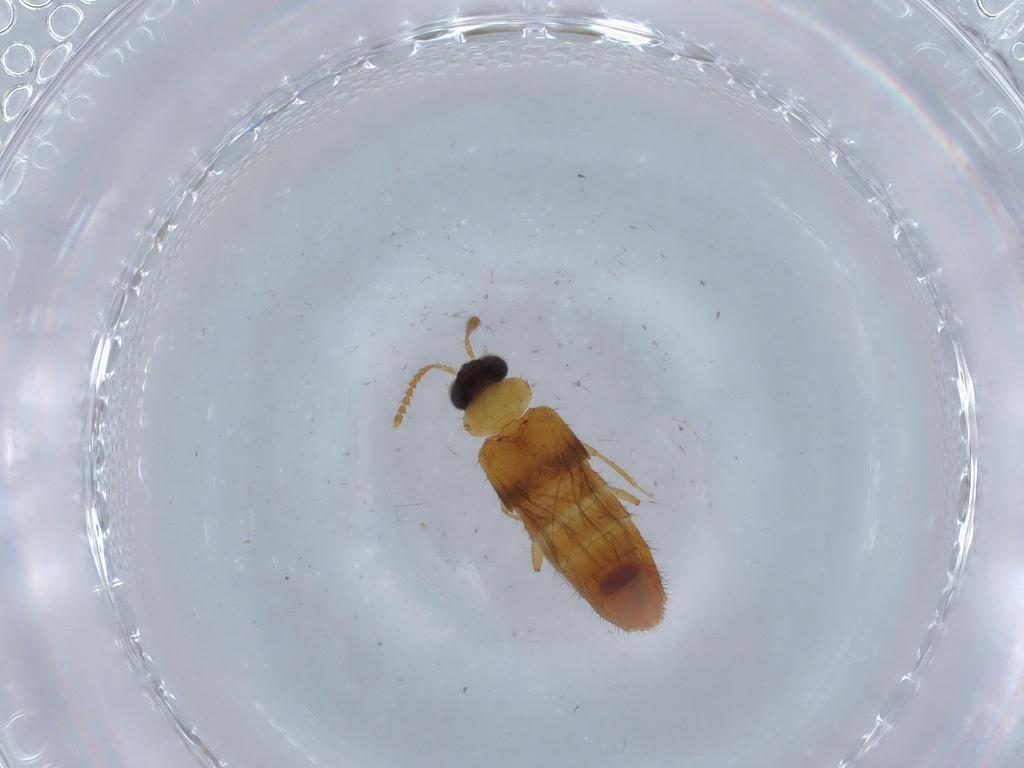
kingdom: Animalia
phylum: Arthropoda
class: Insecta
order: Coleoptera
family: Staphylinidae
